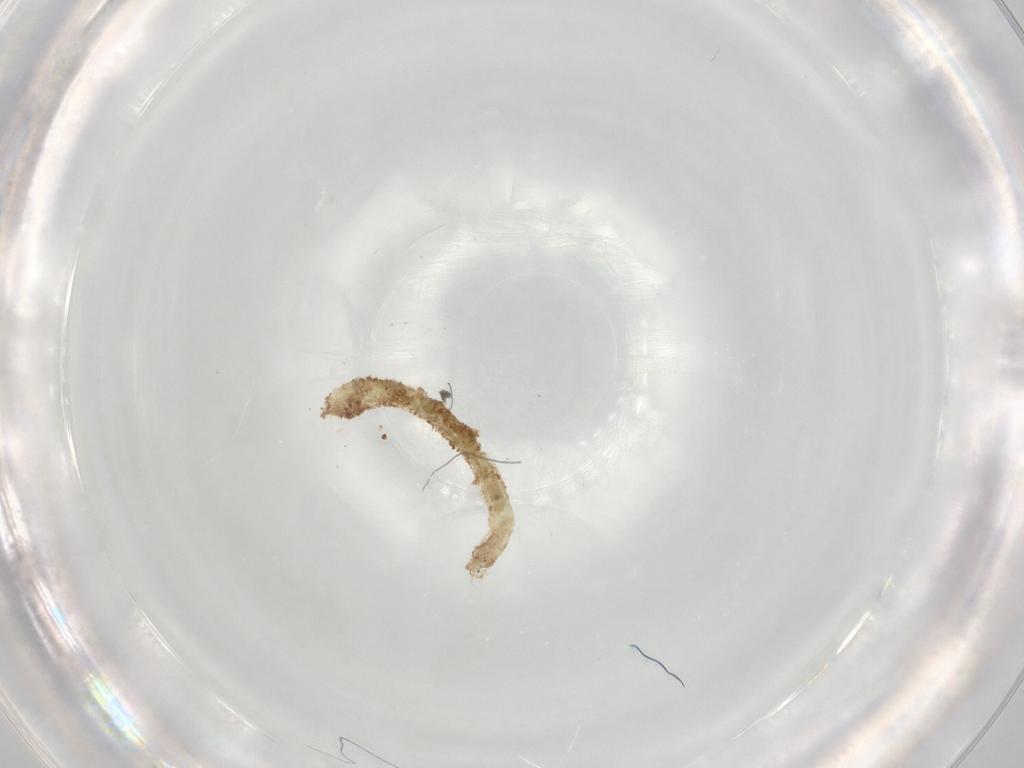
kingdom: Animalia
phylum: Arthropoda
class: Insecta
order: Diptera
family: Chironomidae
